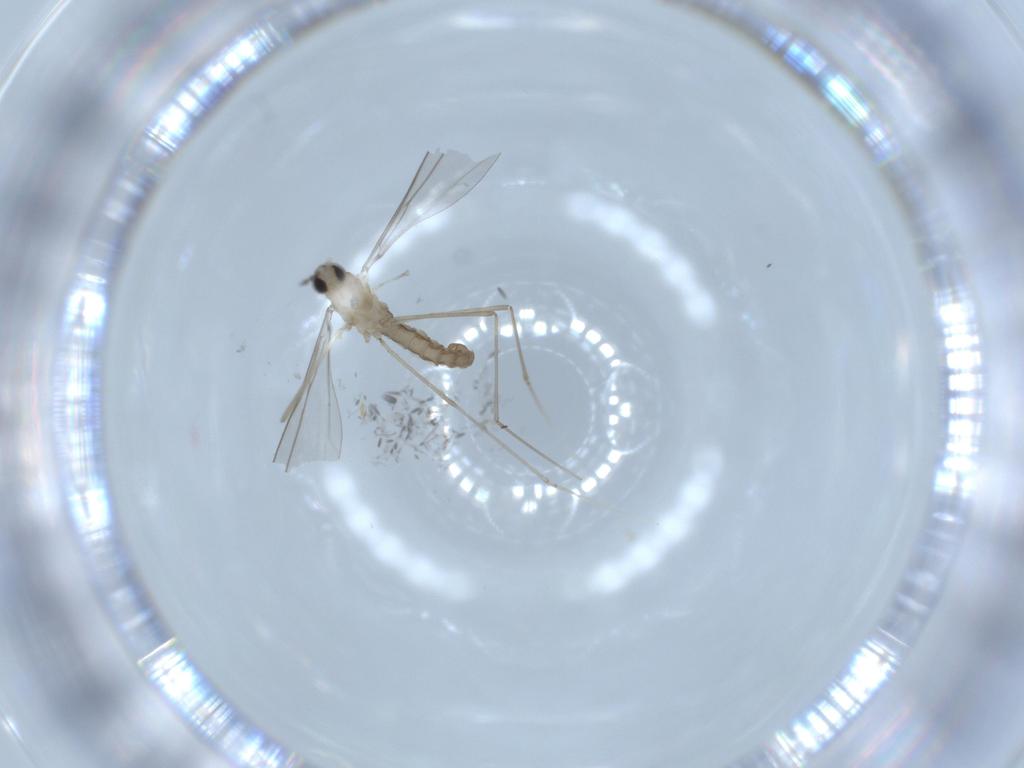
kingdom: Animalia
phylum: Arthropoda
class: Insecta
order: Diptera
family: Cecidomyiidae
